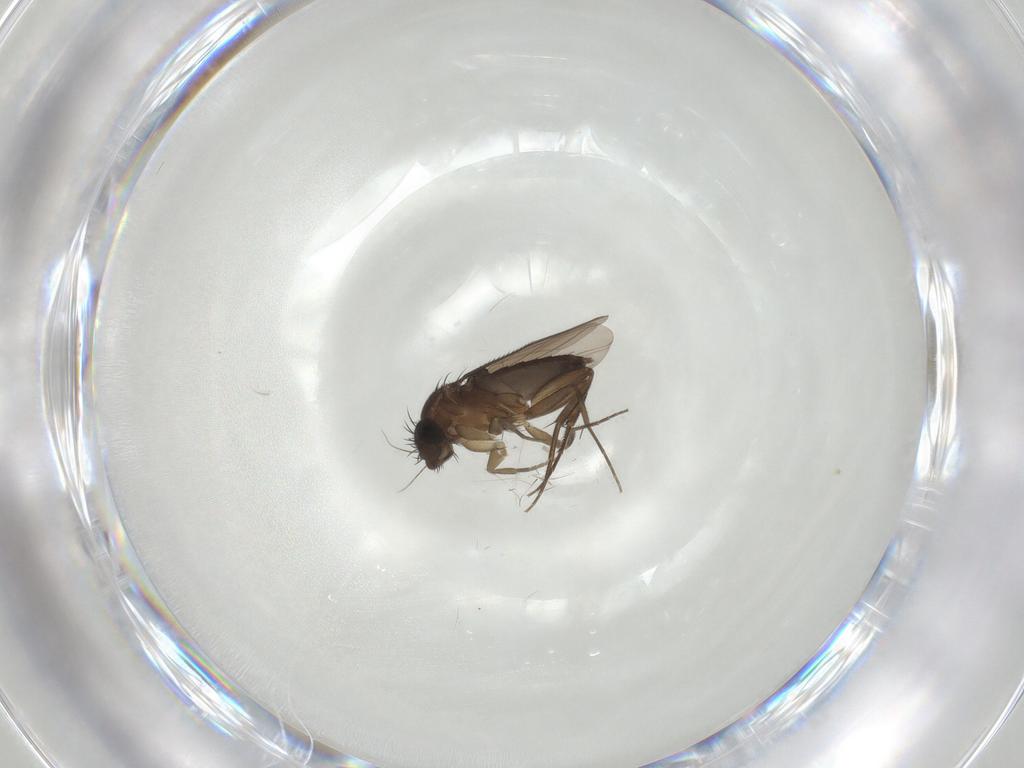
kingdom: Animalia
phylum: Arthropoda
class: Insecta
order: Diptera
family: Phoridae
